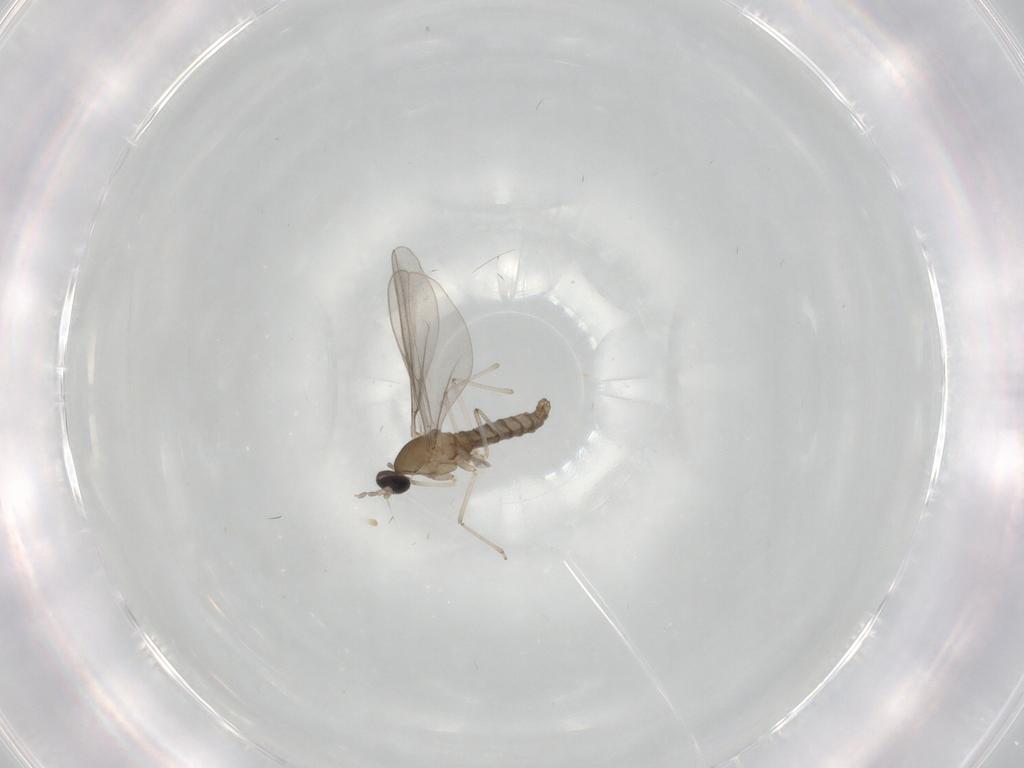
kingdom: Animalia
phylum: Arthropoda
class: Insecta
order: Diptera
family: Cecidomyiidae
